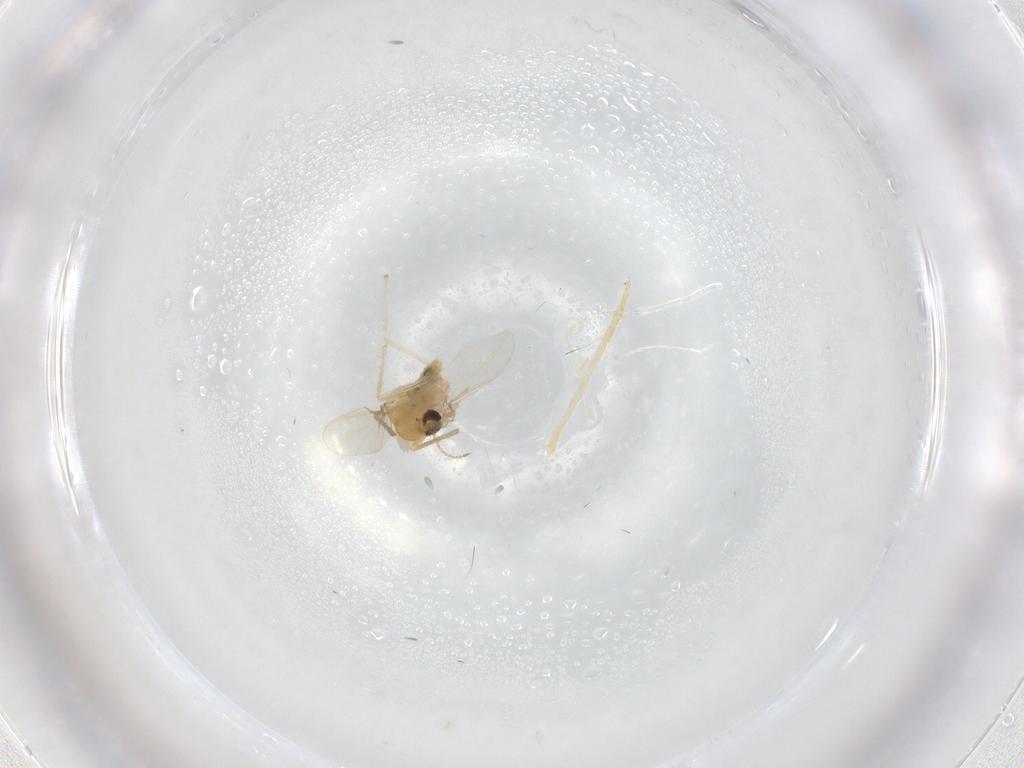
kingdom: Animalia
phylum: Arthropoda
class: Insecta
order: Diptera
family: Chironomidae
